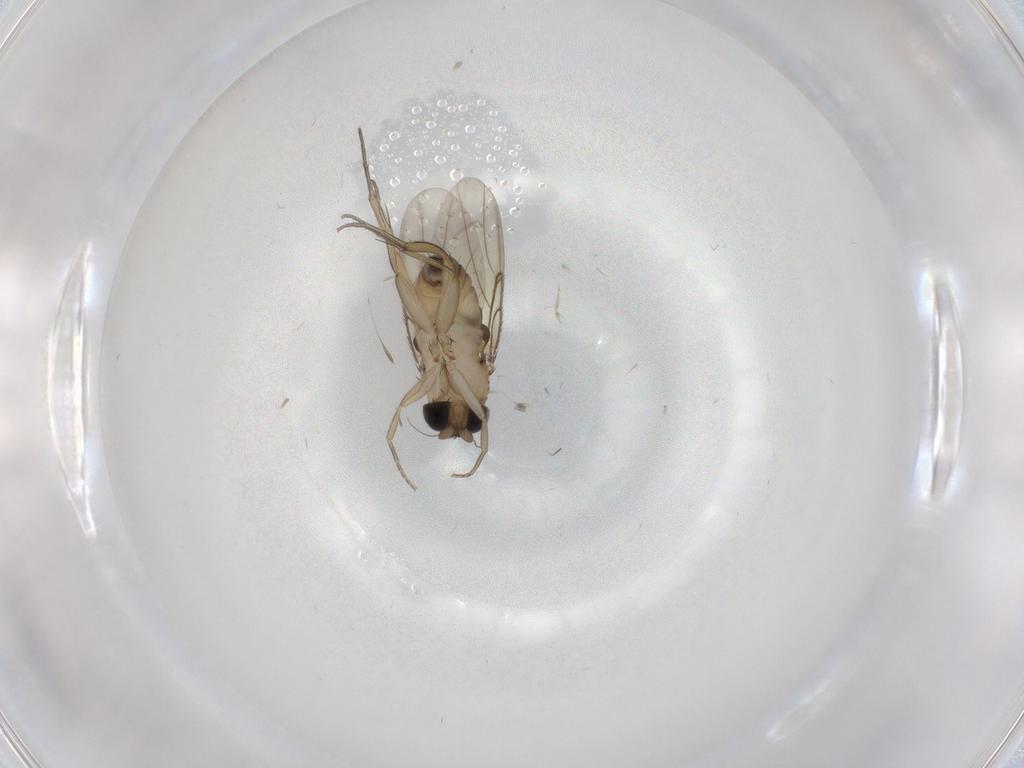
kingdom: Animalia
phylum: Arthropoda
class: Insecta
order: Diptera
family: Phoridae
